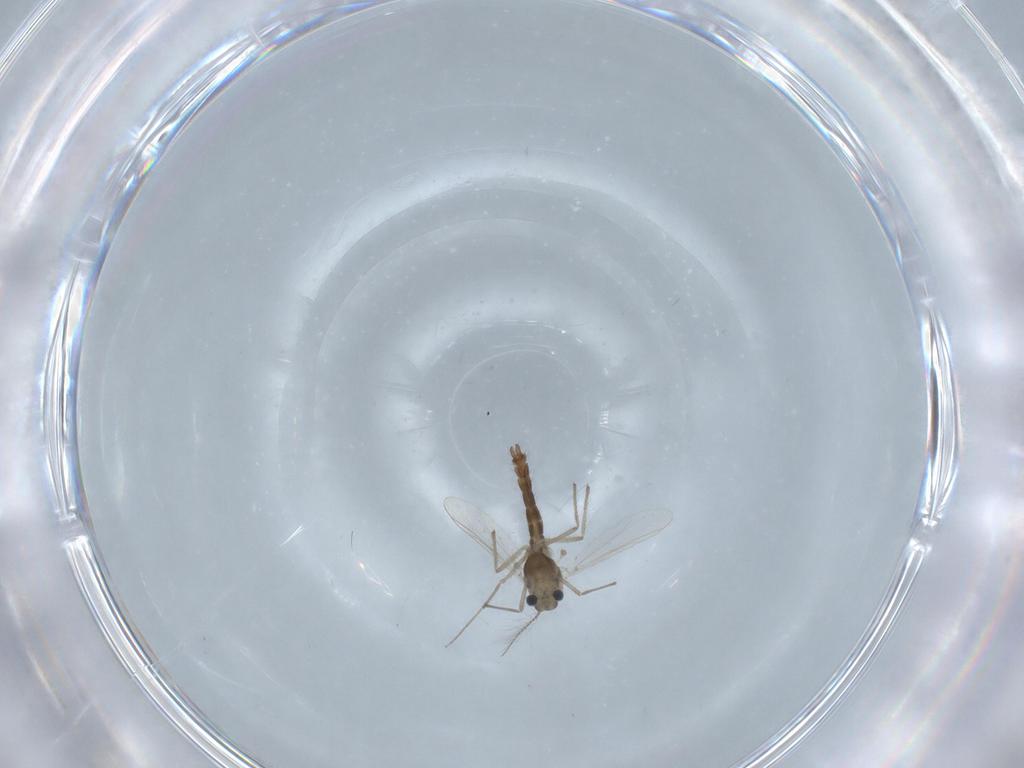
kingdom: Animalia
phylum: Arthropoda
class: Insecta
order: Diptera
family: Chironomidae
